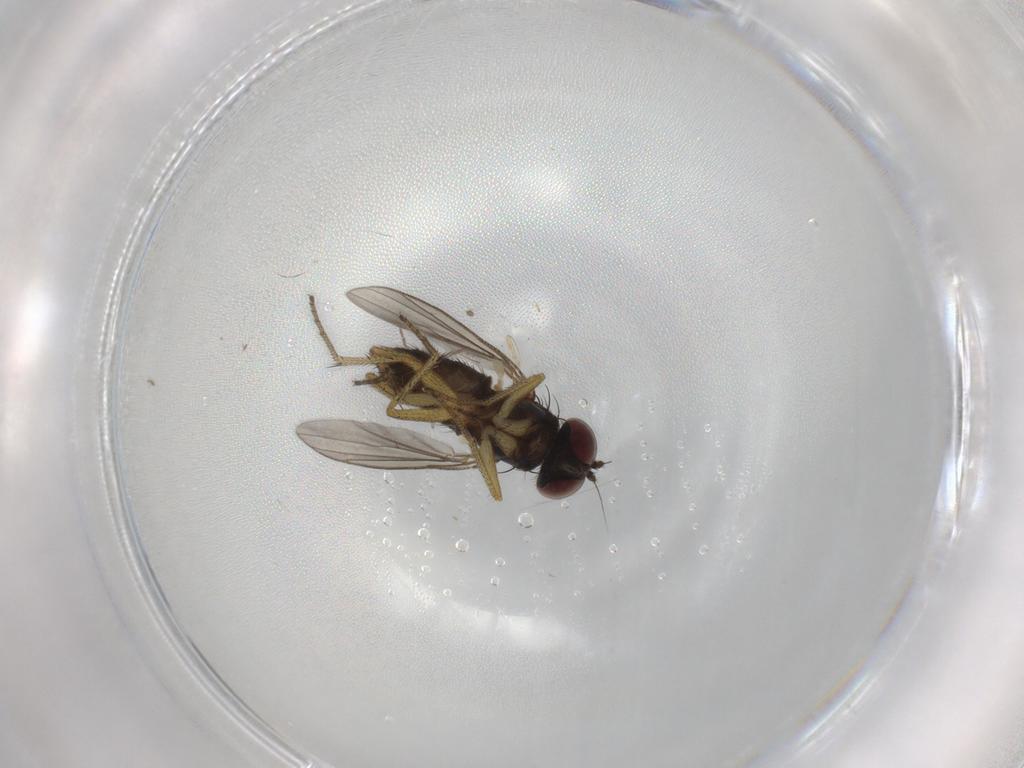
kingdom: Animalia
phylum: Arthropoda
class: Insecta
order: Diptera
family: Dolichopodidae
